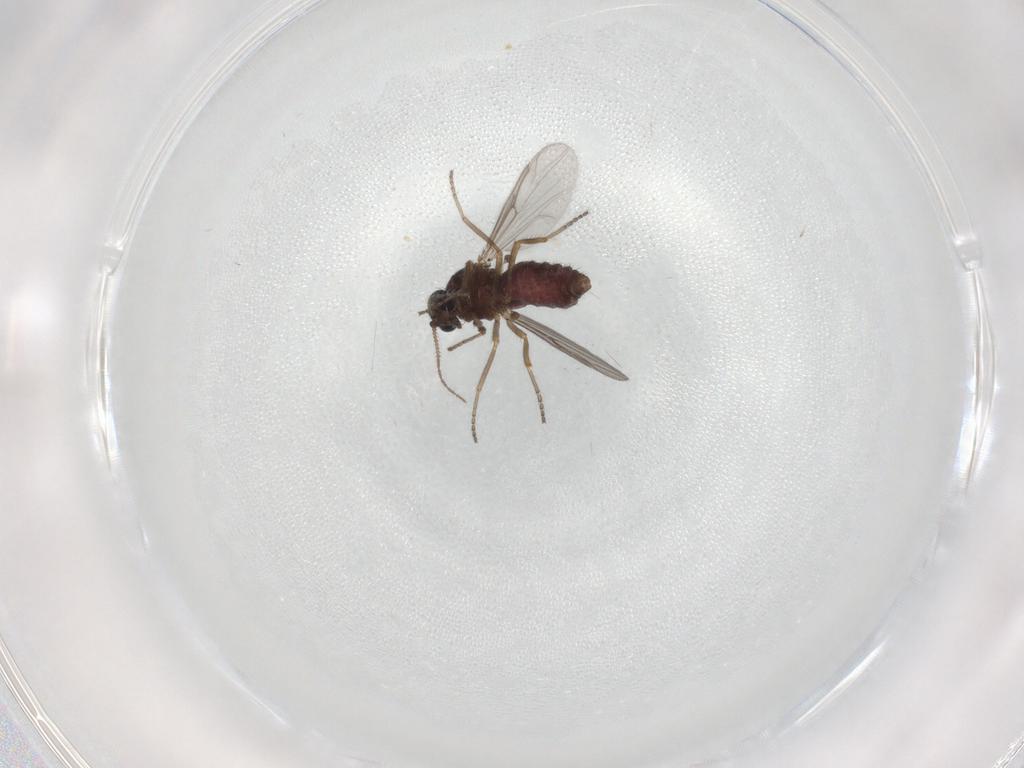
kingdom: Animalia
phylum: Arthropoda
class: Insecta
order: Diptera
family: Ceratopogonidae
